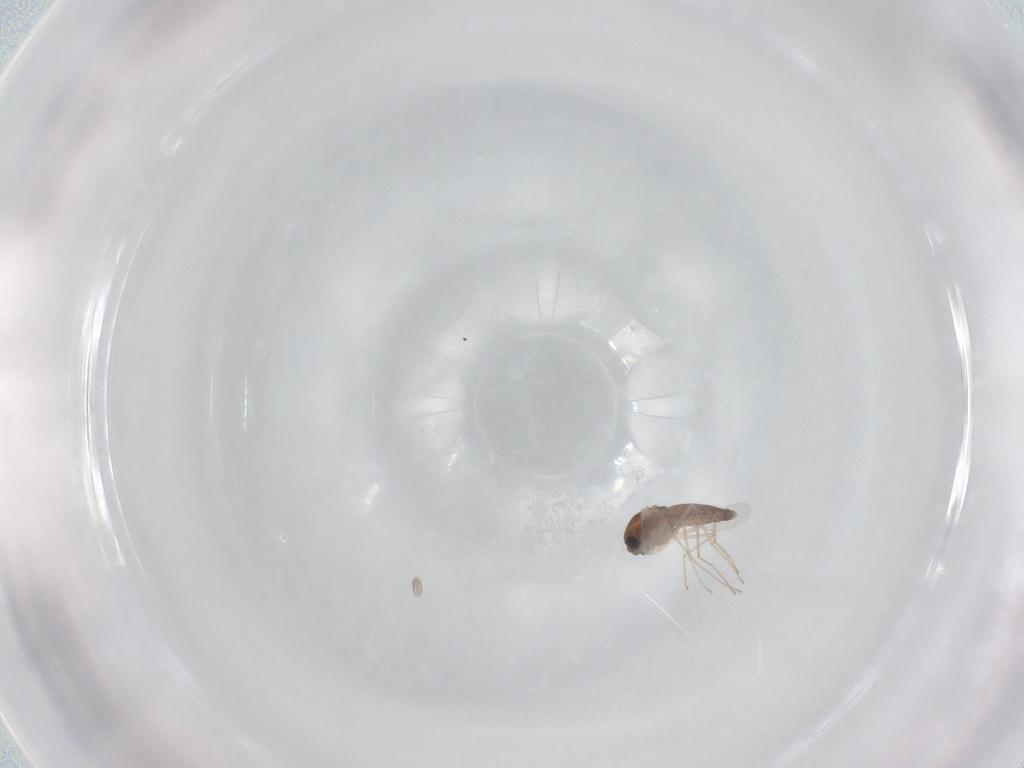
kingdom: Animalia
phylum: Arthropoda
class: Insecta
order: Diptera
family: Chironomidae
